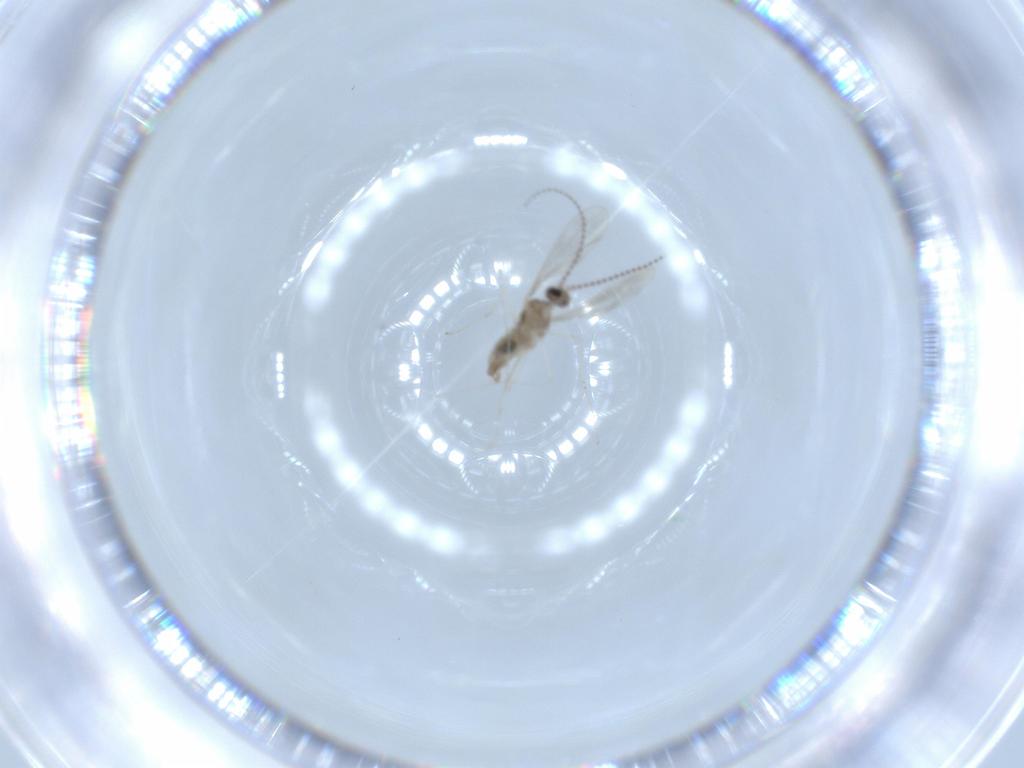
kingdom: Animalia
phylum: Arthropoda
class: Insecta
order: Diptera
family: Cecidomyiidae
